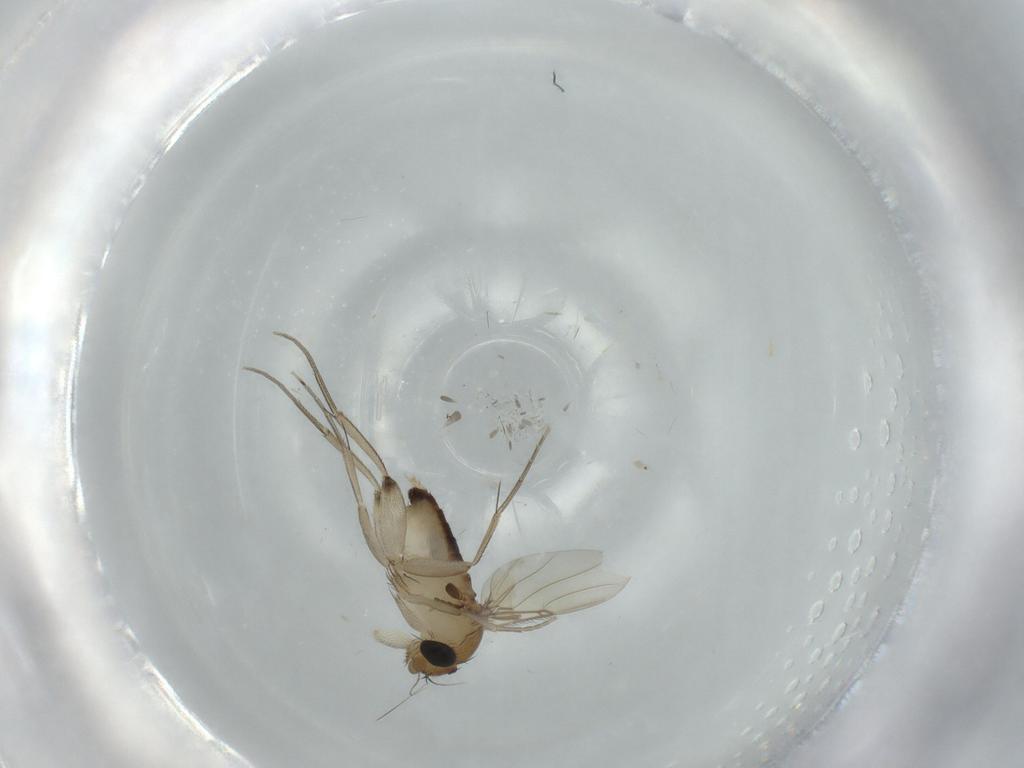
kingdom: Animalia
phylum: Arthropoda
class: Insecta
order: Diptera
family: Phoridae
